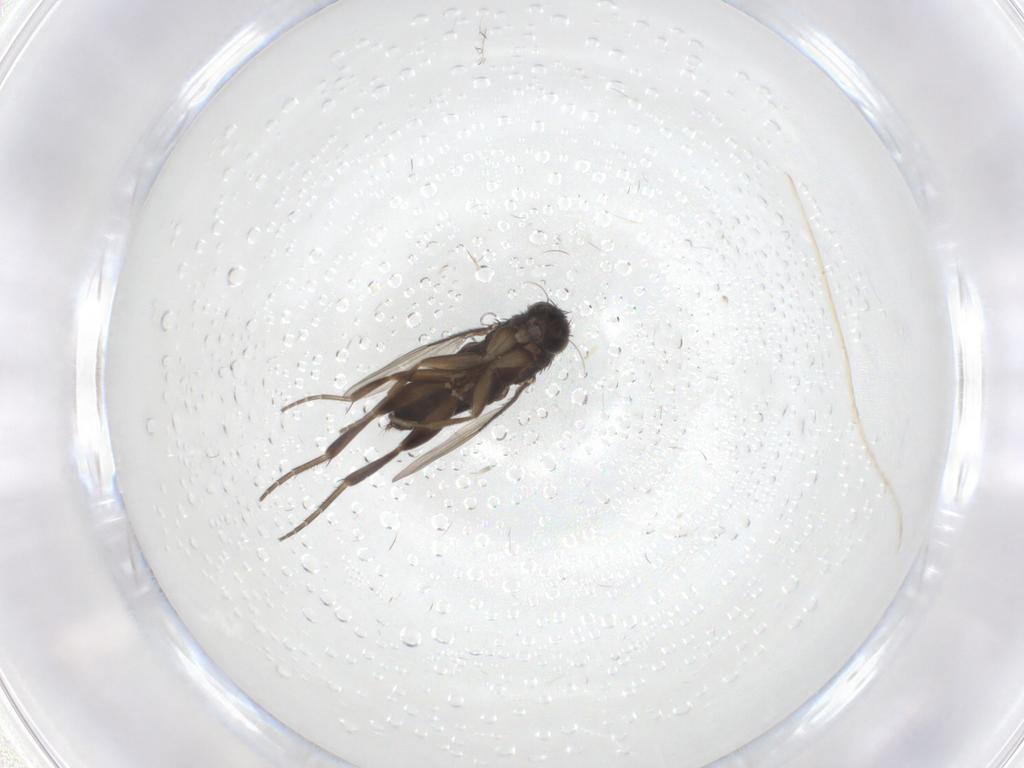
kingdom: Animalia
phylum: Arthropoda
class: Insecta
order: Diptera
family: Phoridae
